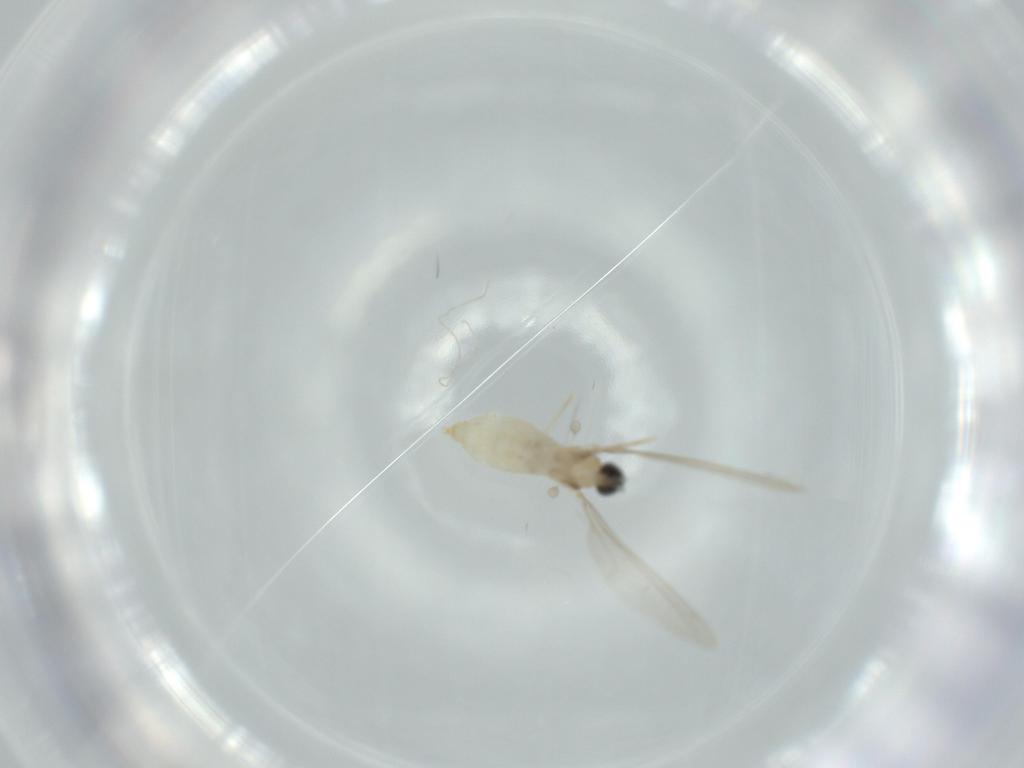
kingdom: Animalia
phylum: Arthropoda
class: Insecta
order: Diptera
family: Cecidomyiidae
